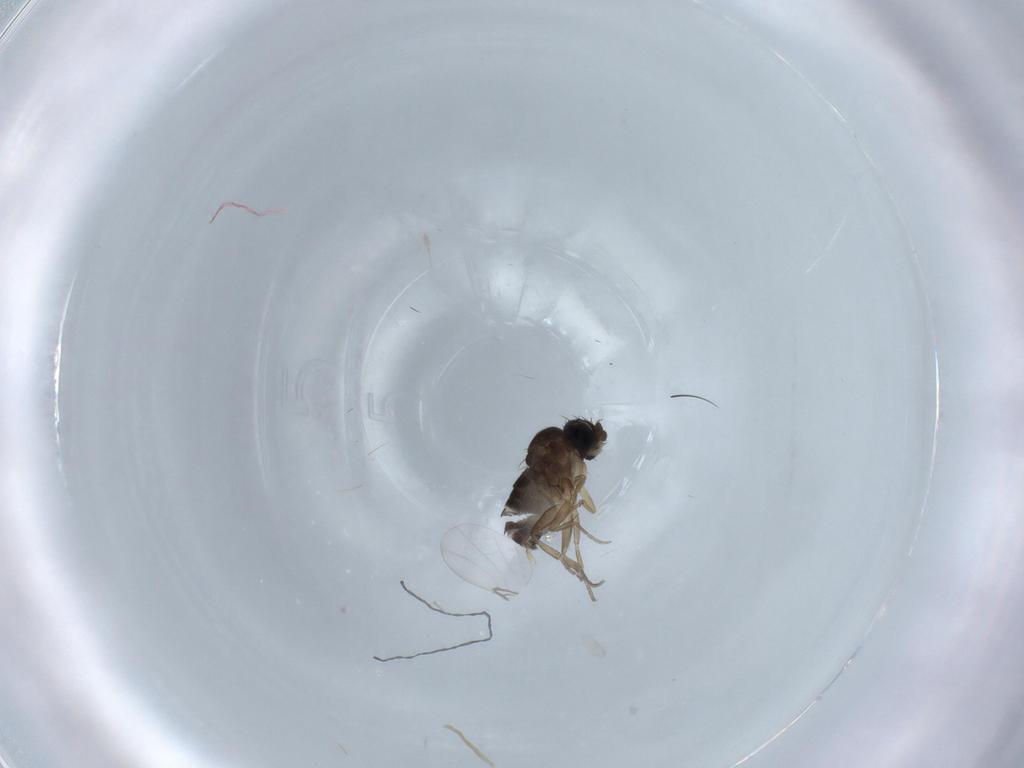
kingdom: Animalia
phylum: Arthropoda
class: Insecta
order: Diptera
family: Phoridae
